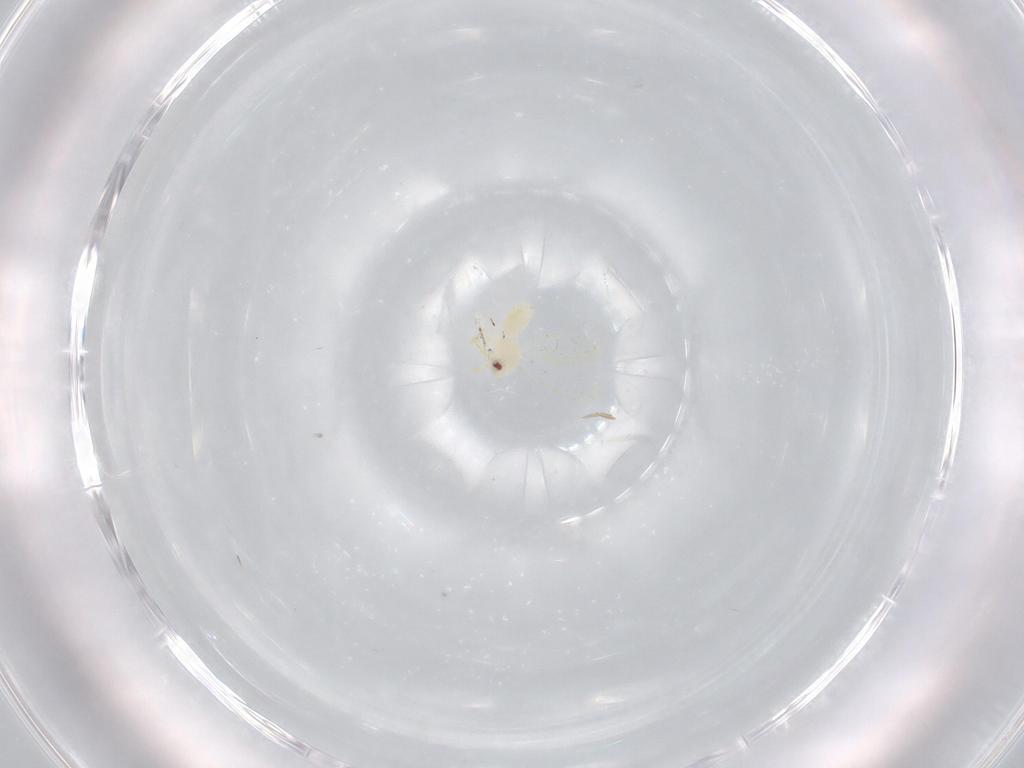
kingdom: Animalia
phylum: Arthropoda
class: Insecta
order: Hemiptera
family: Aleyrodidae
